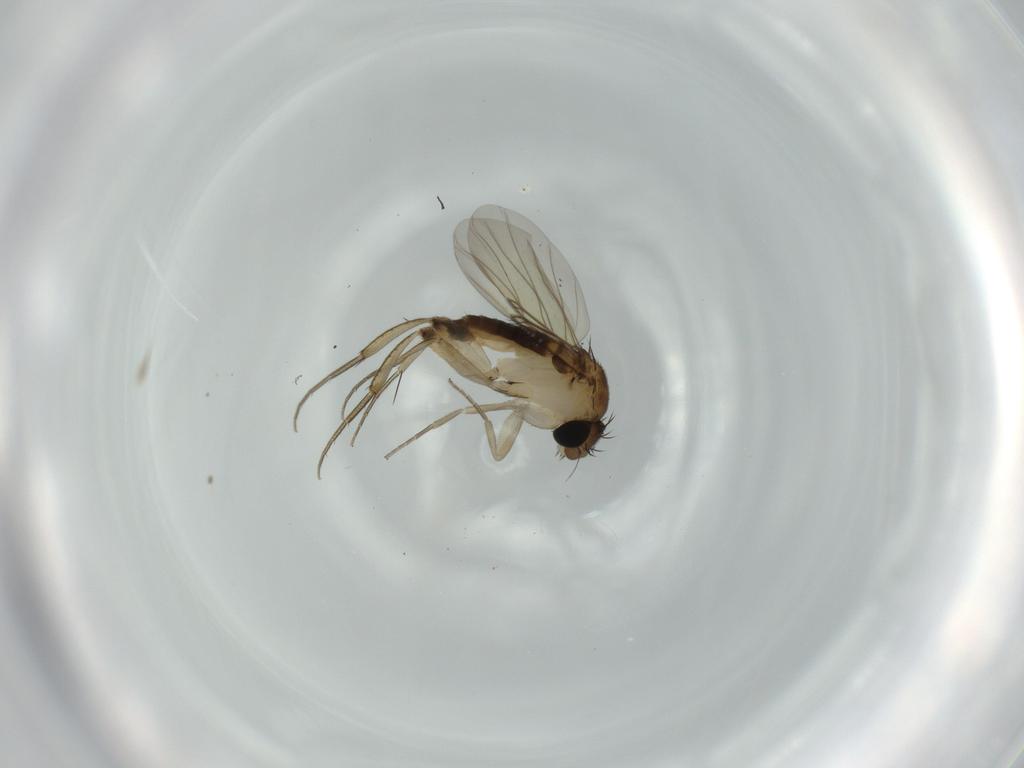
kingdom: Animalia
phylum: Arthropoda
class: Insecta
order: Diptera
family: Phoridae
